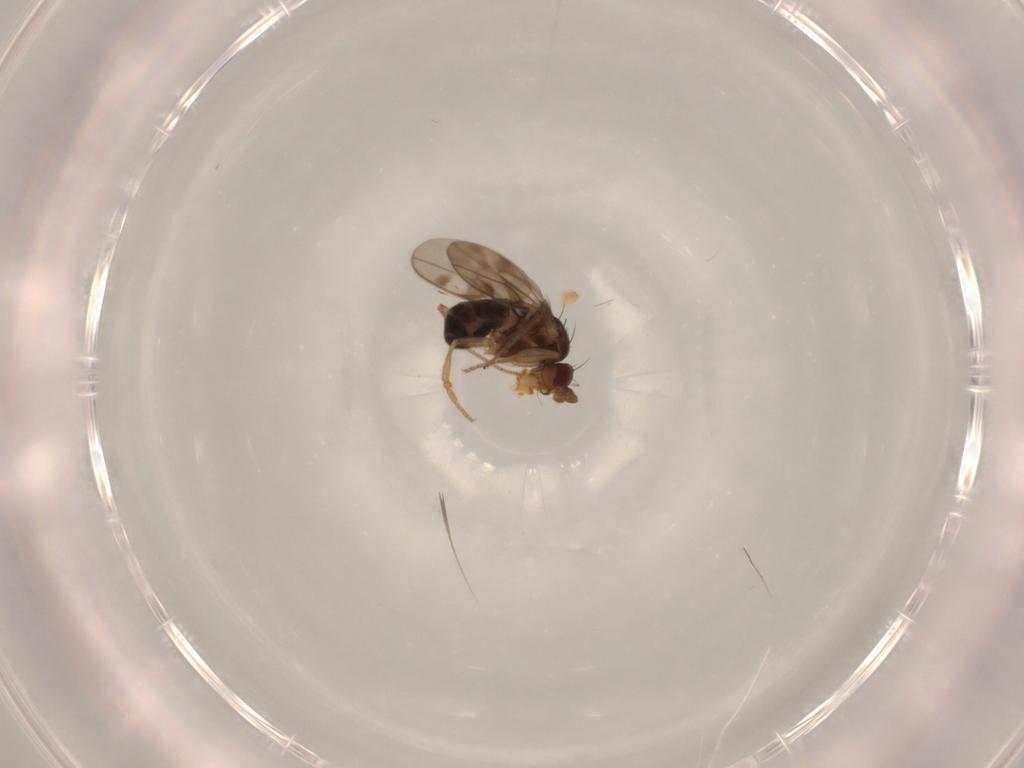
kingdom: Animalia
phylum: Arthropoda
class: Insecta
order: Diptera
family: Sphaeroceridae
